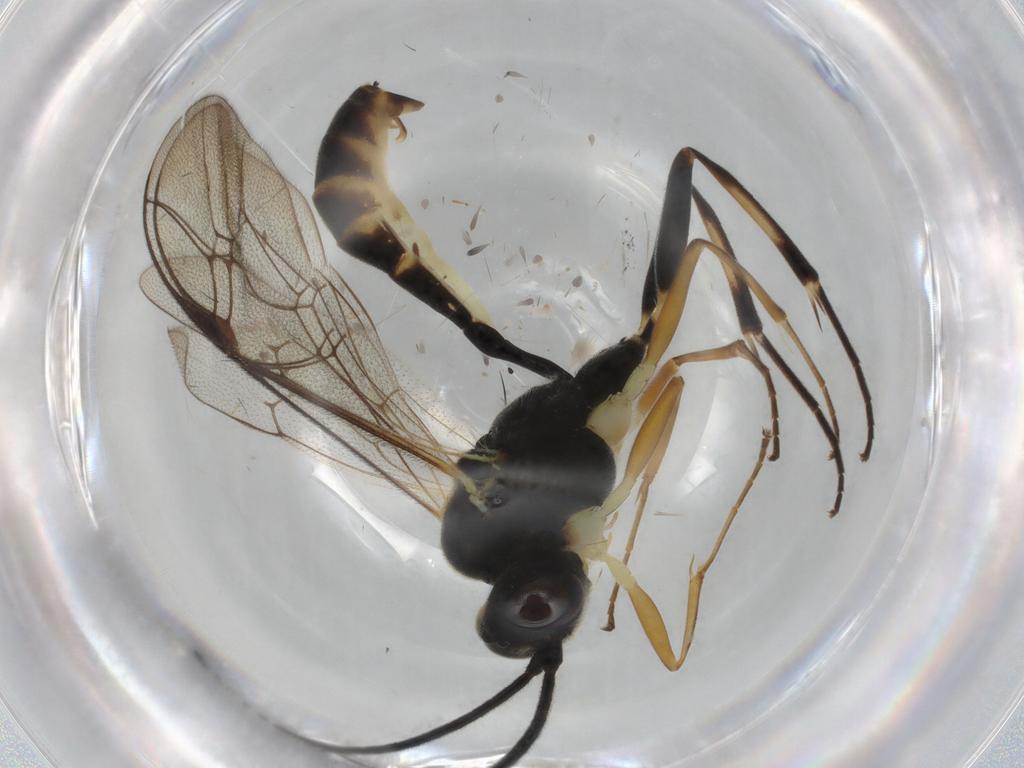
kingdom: Animalia
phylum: Arthropoda
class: Insecta
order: Hymenoptera
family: Ichneumonidae
